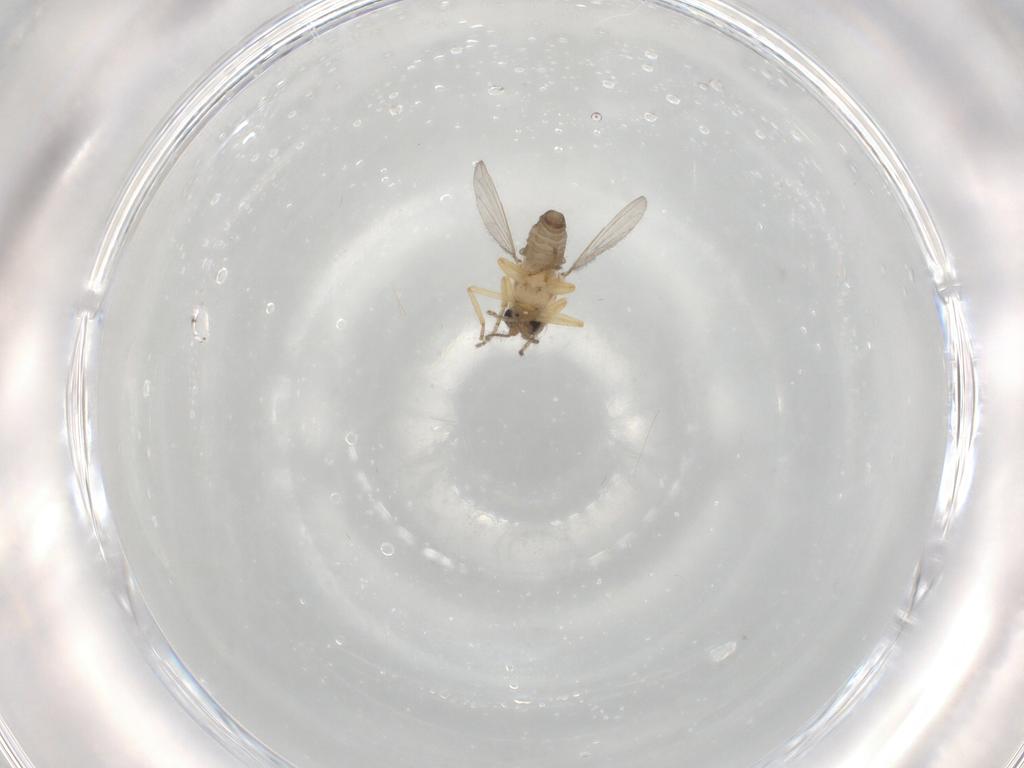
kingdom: Animalia
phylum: Arthropoda
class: Insecta
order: Diptera
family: Ceratopogonidae
